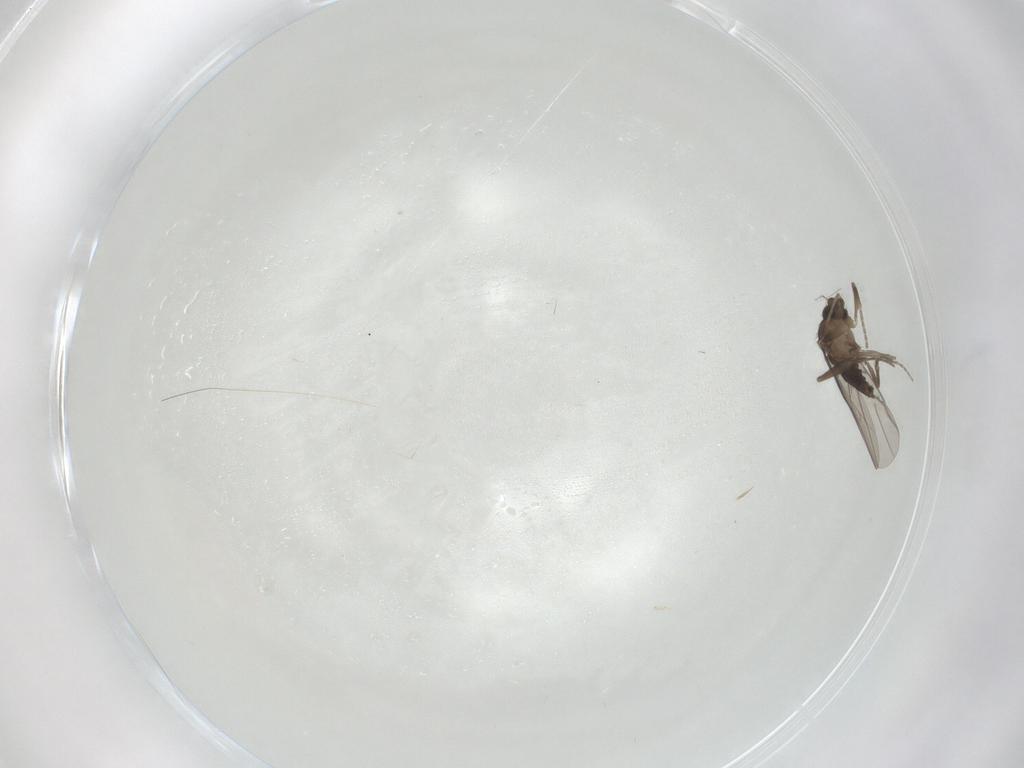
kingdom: Animalia
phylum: Arthropoda
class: Insecta
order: Diptera
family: Phoridae
